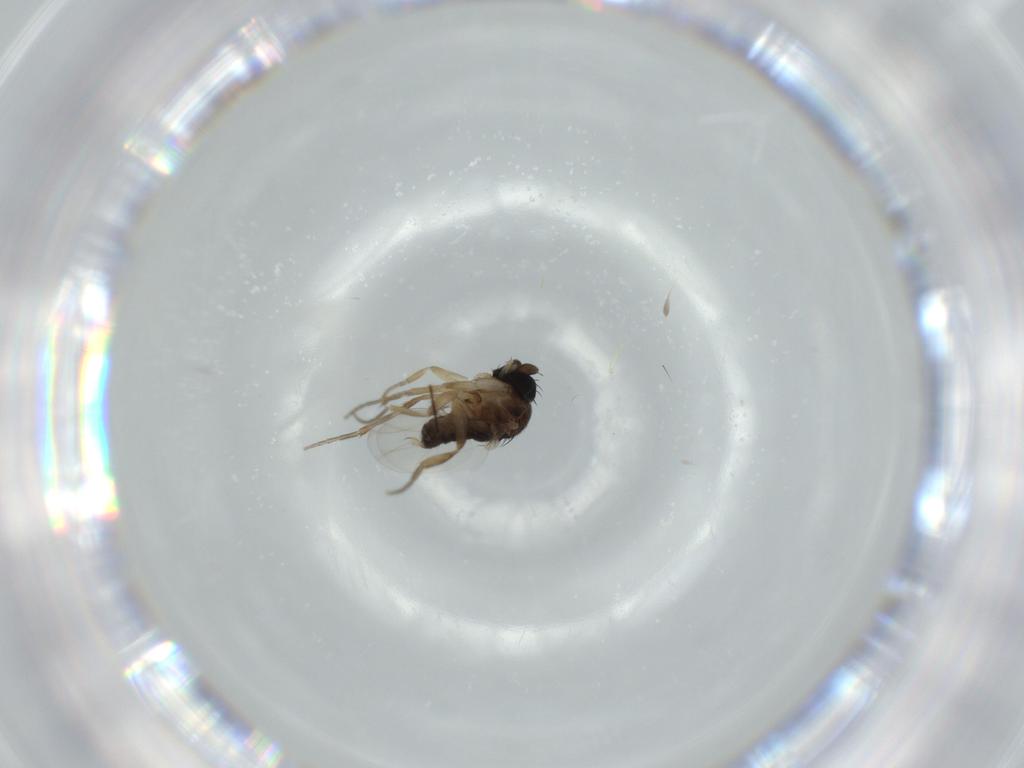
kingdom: Animalia
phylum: Arthropoda
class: Insecta
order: Diptera
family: Phoridae
